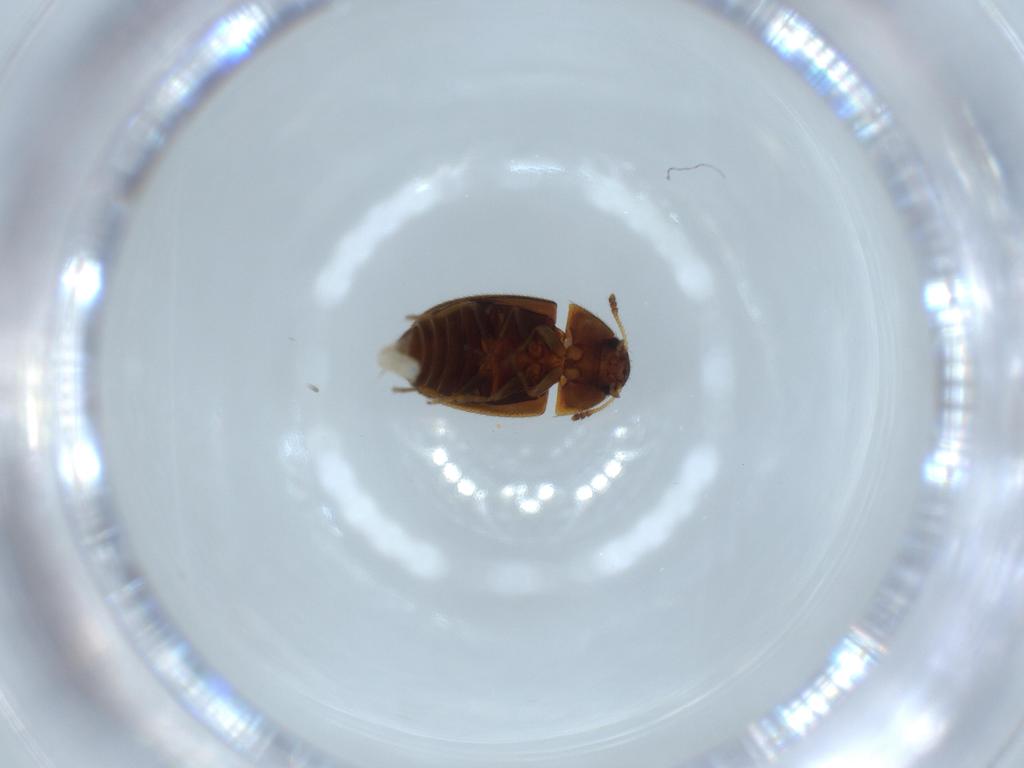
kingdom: Animalia
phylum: Arthropoda
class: Insecta
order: Coleoptera
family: Mycetophagidae
